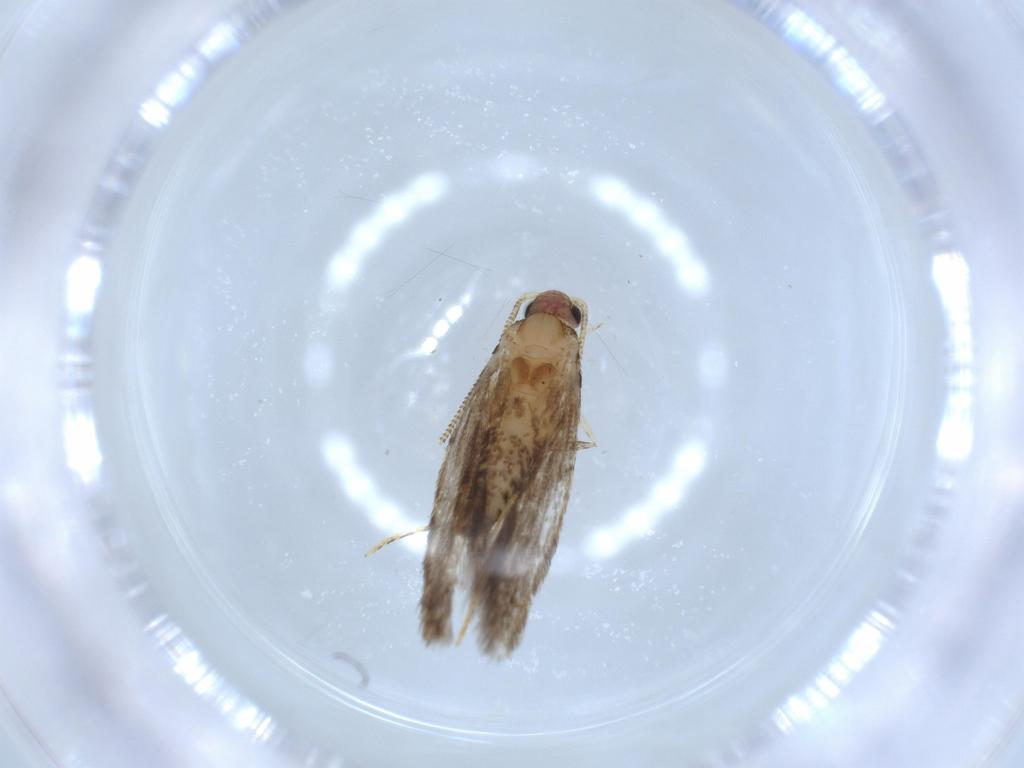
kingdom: Animalia
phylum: Arthropoda
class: Insecta
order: Lepidoptera
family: Tineidae
